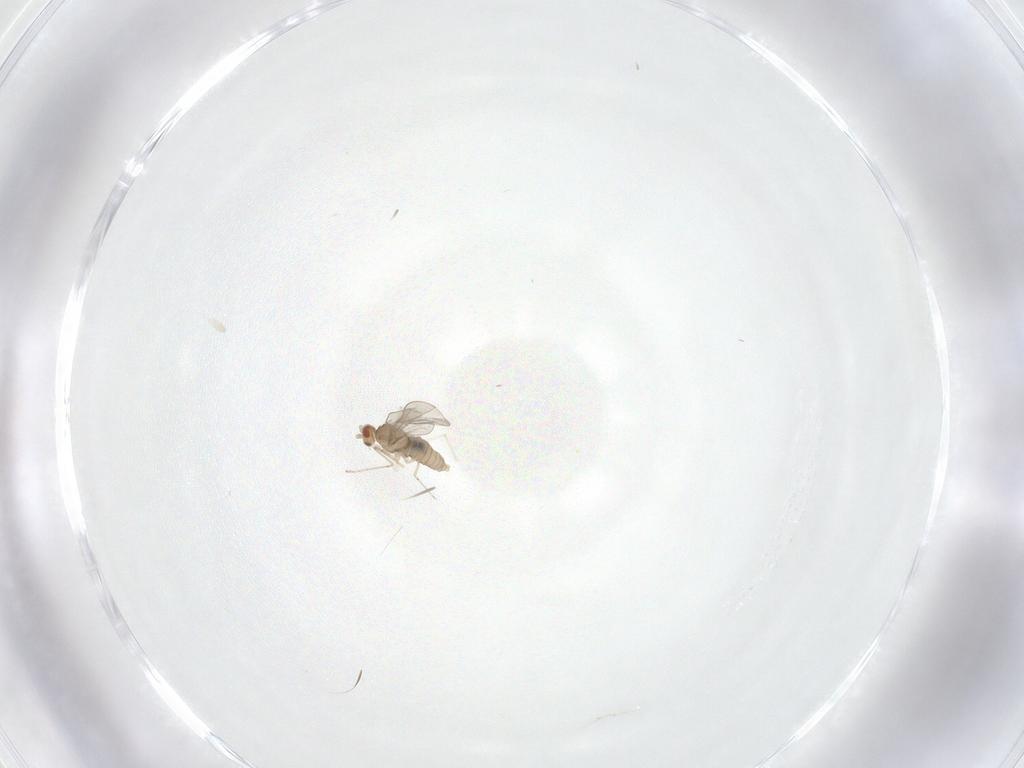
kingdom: Animalia
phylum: Arthropoda
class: Insecta
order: Diptera
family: Cecidomyiidae
